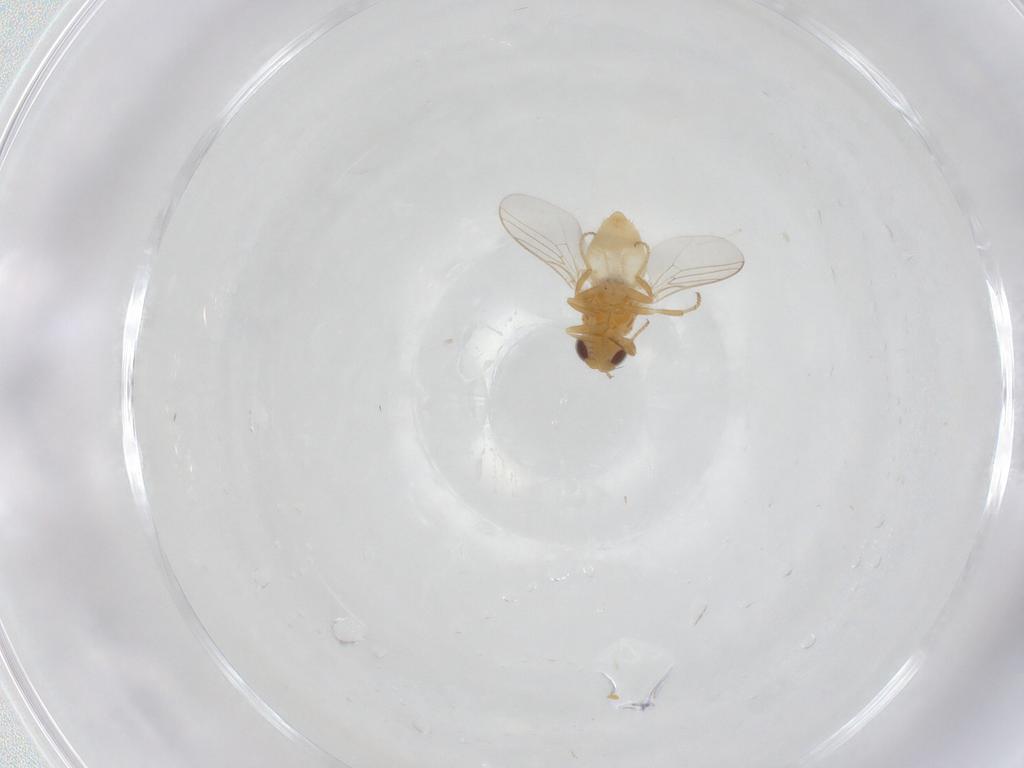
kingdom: Animalia
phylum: Arthropoda
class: Insecta
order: Diptera
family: Chloropidae
